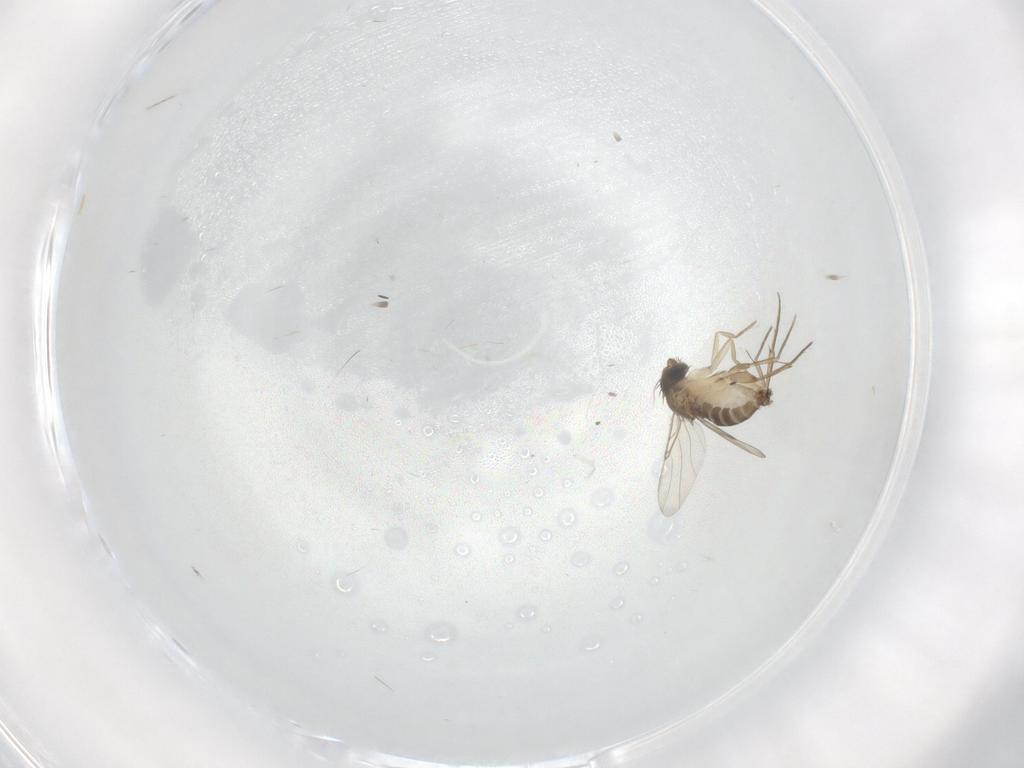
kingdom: Animalia
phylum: Arthropoda
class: Insecta
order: Diptera
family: Phoridae
